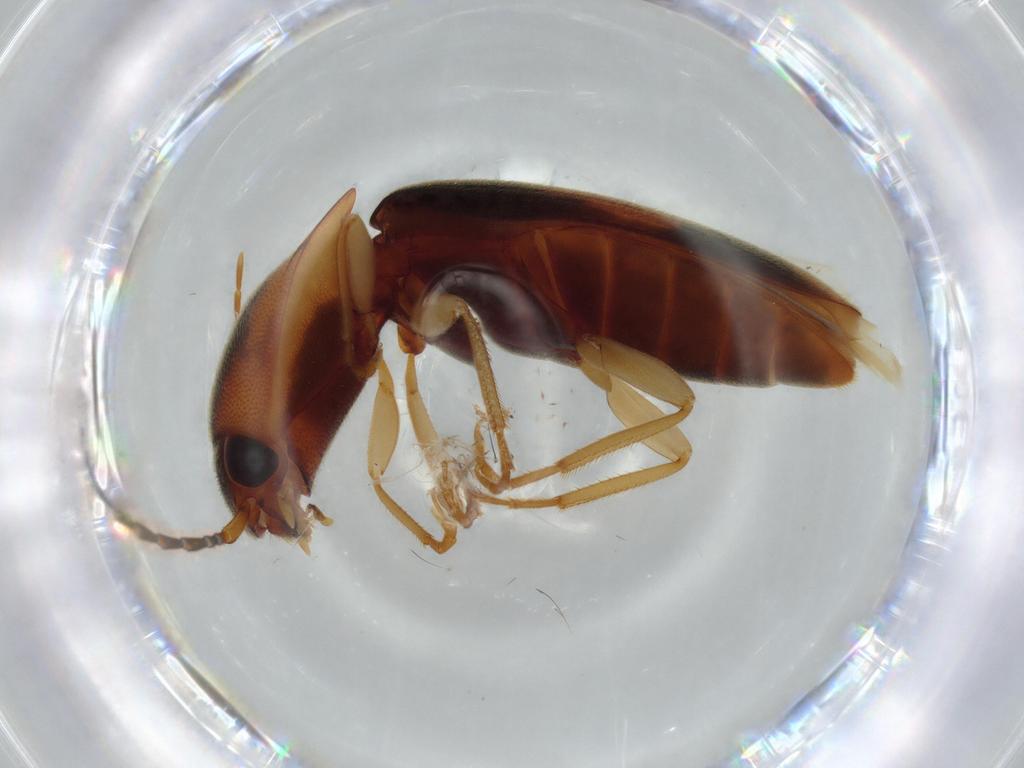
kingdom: Animalia
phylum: Arthropoda
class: Insecta
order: Coleoptera
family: Elateridae
